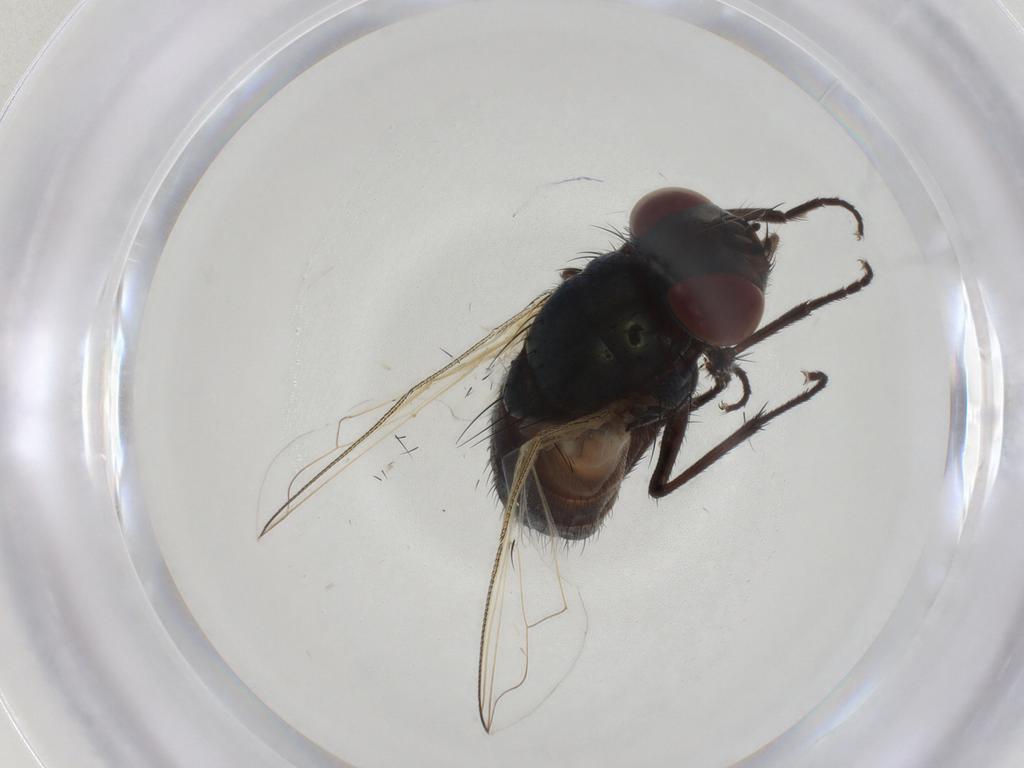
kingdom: Animalia
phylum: Arthropoda
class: Insecta
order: Diptera
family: Muscidae
